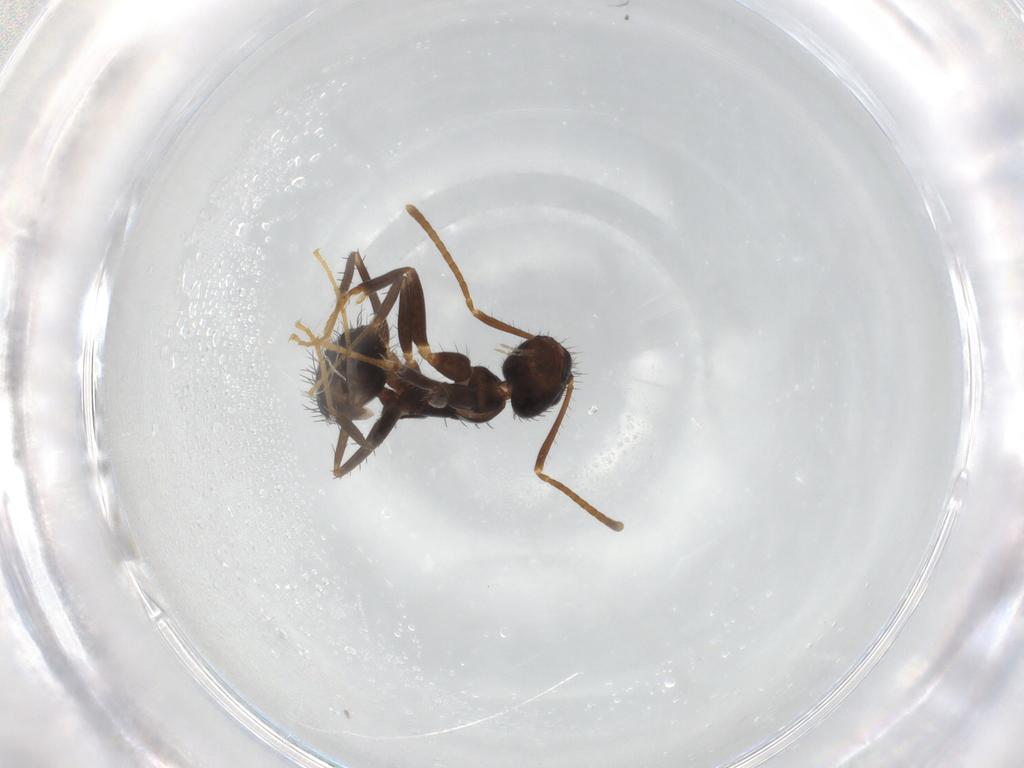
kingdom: Animalia
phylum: Arthropoda
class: Insecta
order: Hymenoptera
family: Formicidae
